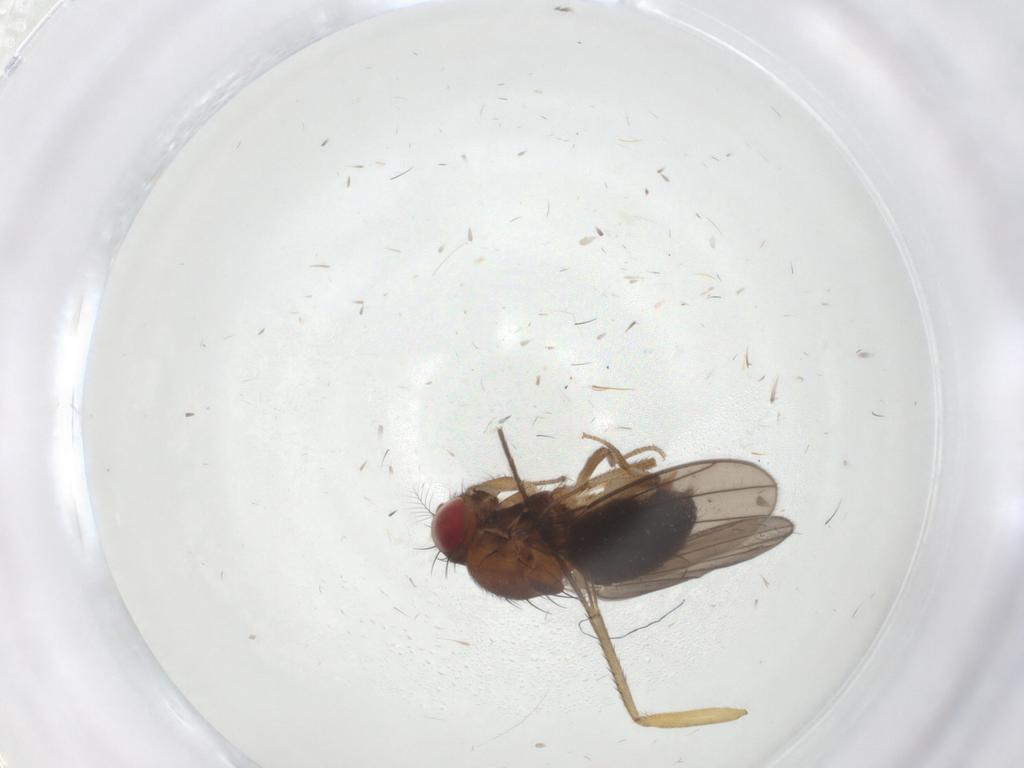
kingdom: Animalia
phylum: Arthropoda
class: Insecta
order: Diptera
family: Drosophilidae
